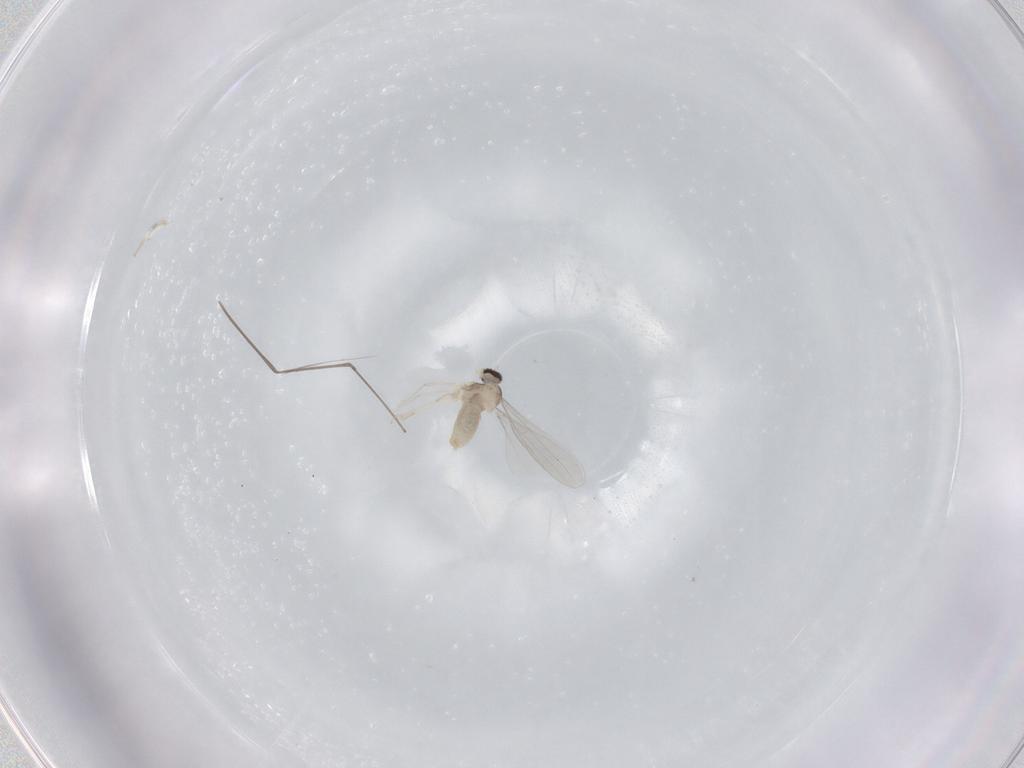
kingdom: Animalia
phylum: Arthropoda
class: Insecta
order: Diptera
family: Cecidomyiidae
